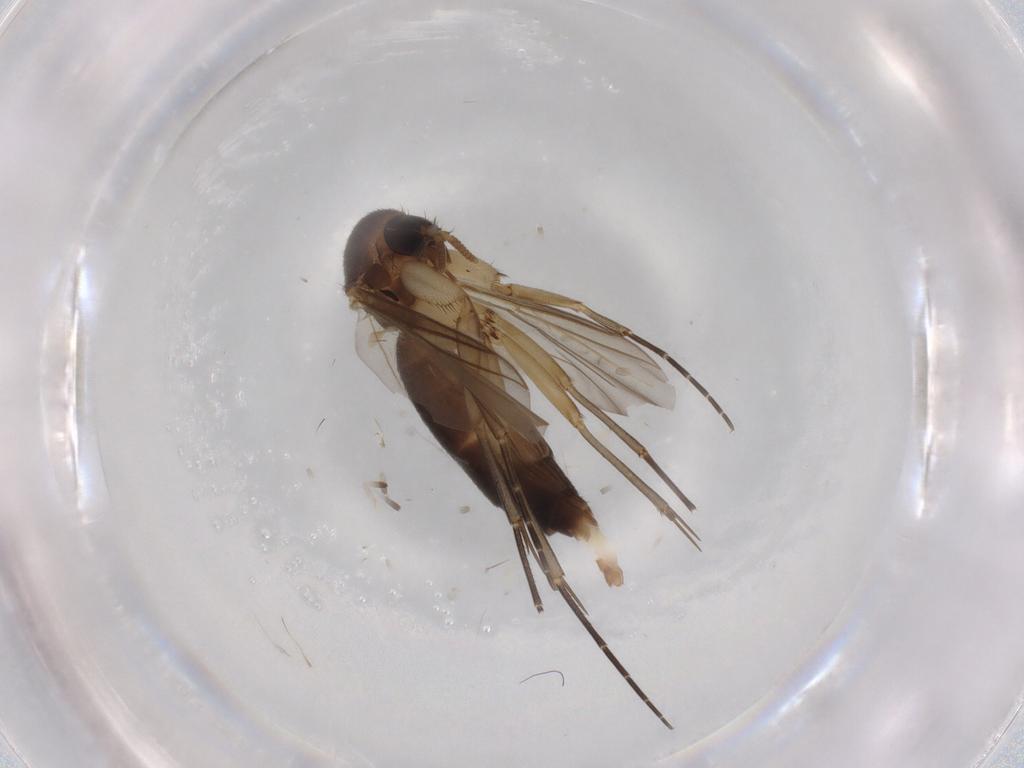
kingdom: Animalia
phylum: Arthropoda
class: Insecta
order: Diptera
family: Mycetophilidae
